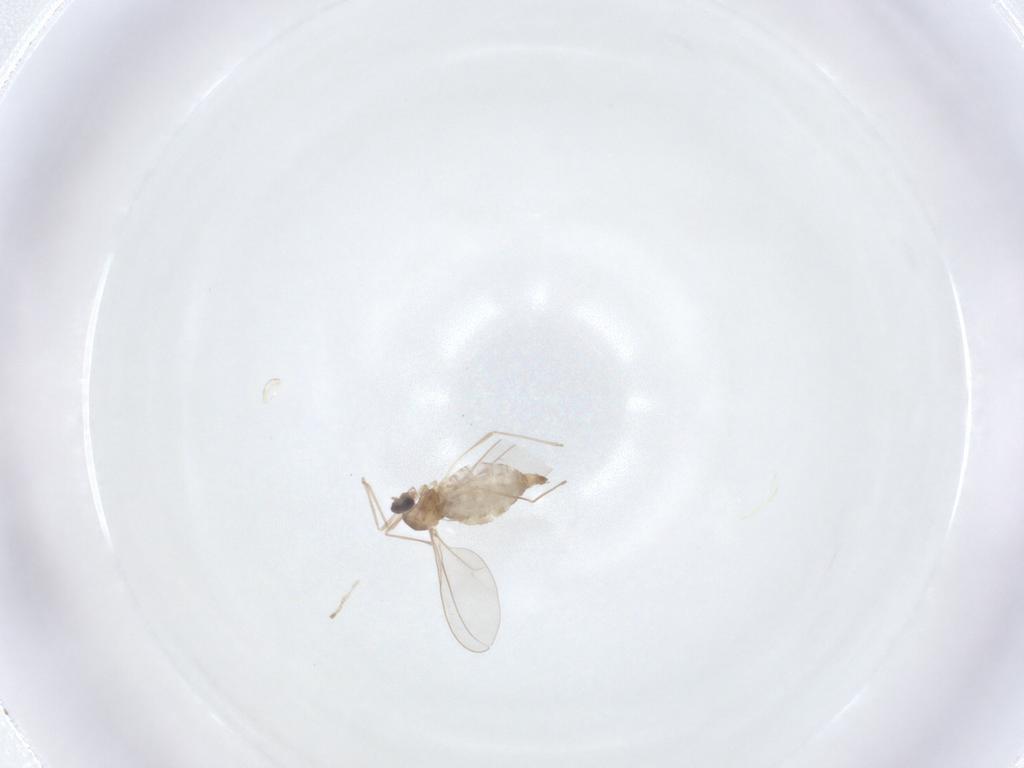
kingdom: Animalia
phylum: Arthropoda
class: Insecta
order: Diptera
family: Cecidomyiidae
